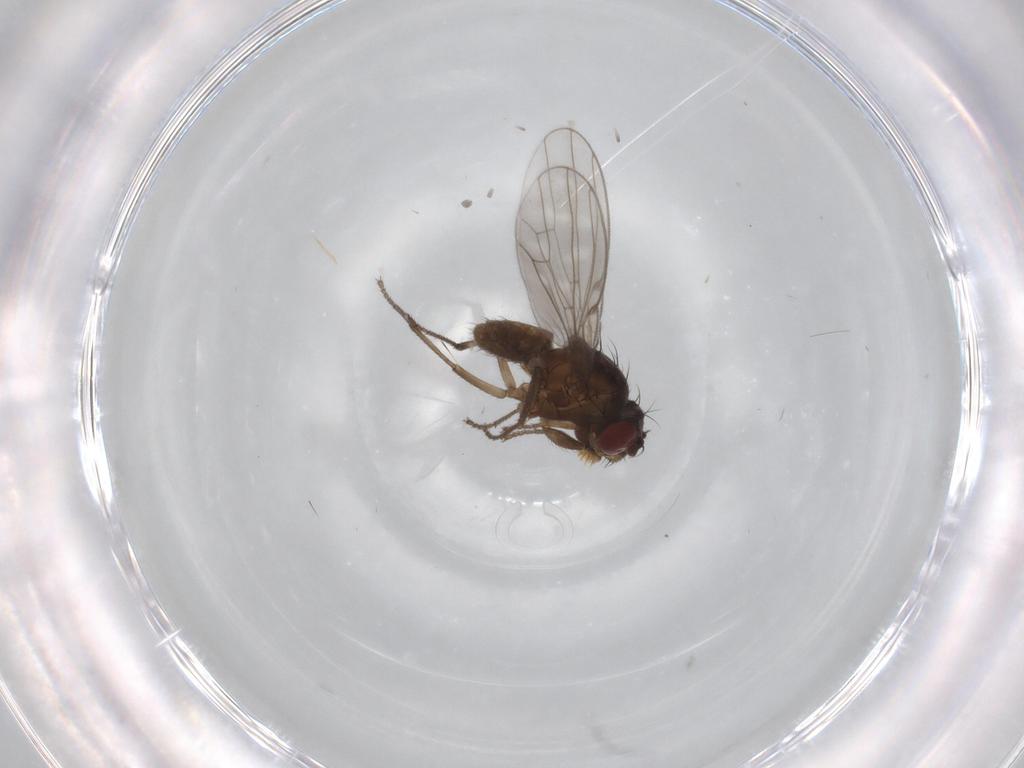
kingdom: Animalia
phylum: Arthropoda
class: Insecta
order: Diptera
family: Ephydridae
